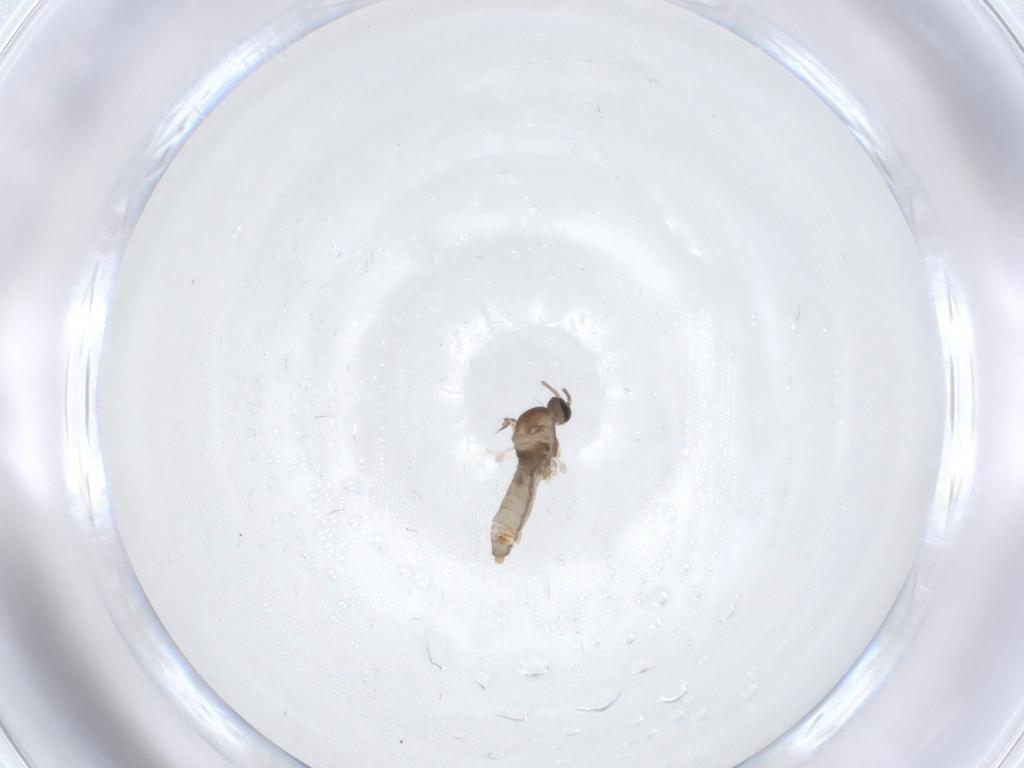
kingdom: Animalia
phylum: Arthropoda
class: Insecta
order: Diptera
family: Cecidomyiidae
